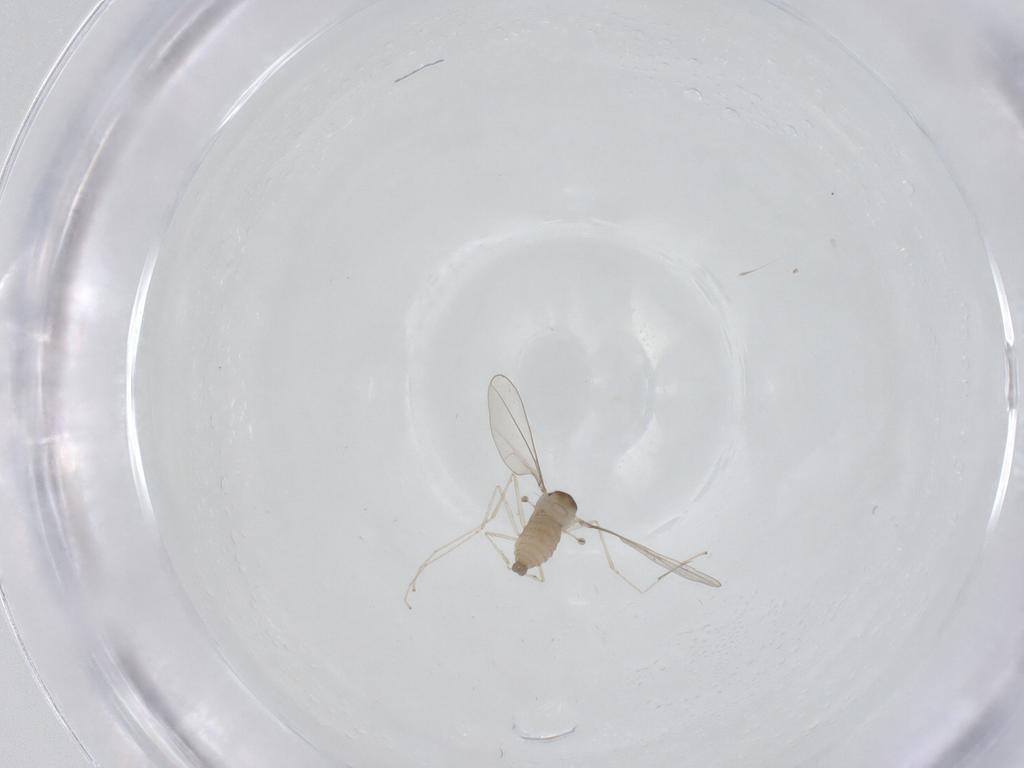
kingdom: Animalia
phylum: Arthropoda
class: Insecta
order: Diptera
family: Cecidomyiidae
